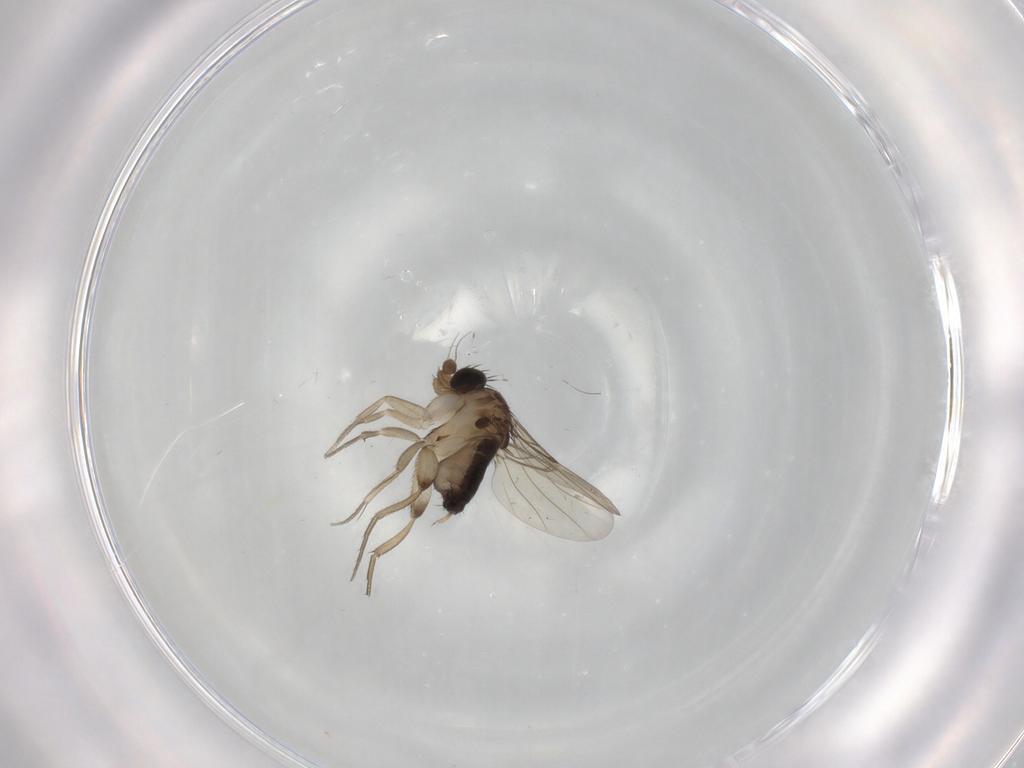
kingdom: Animalia
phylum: Arthropoda
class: Insecta
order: Diptera
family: Phoridae
